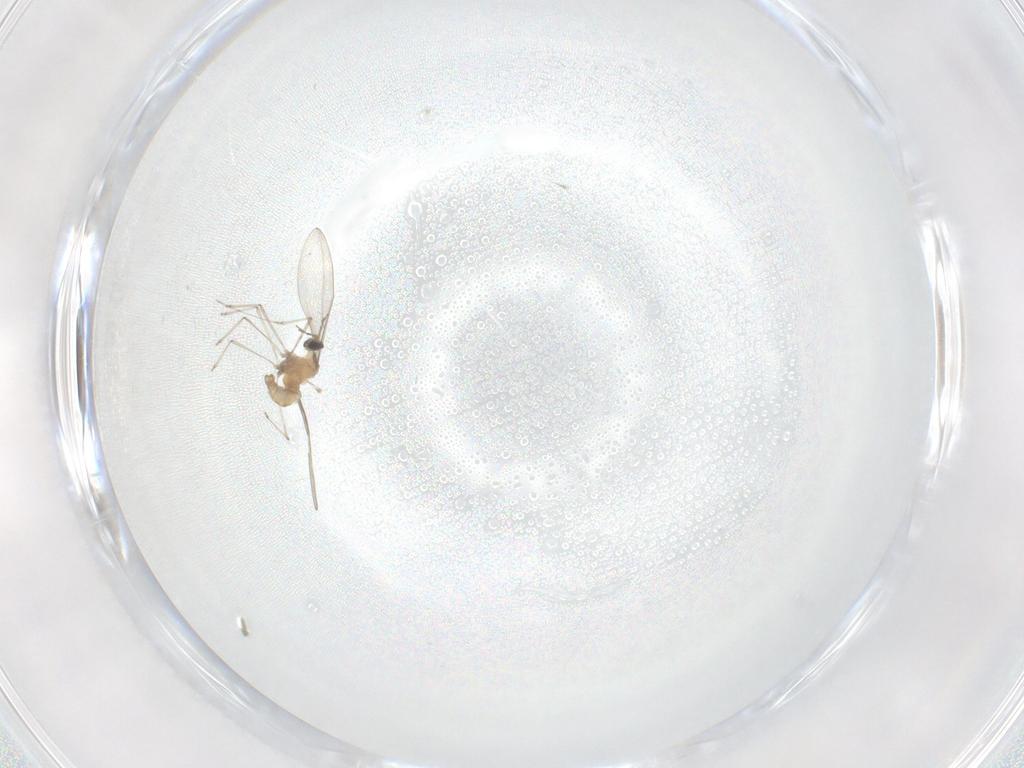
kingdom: Animalia
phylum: Arthropoda
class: Insecta
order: Diptera
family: Cecidomyiidae
